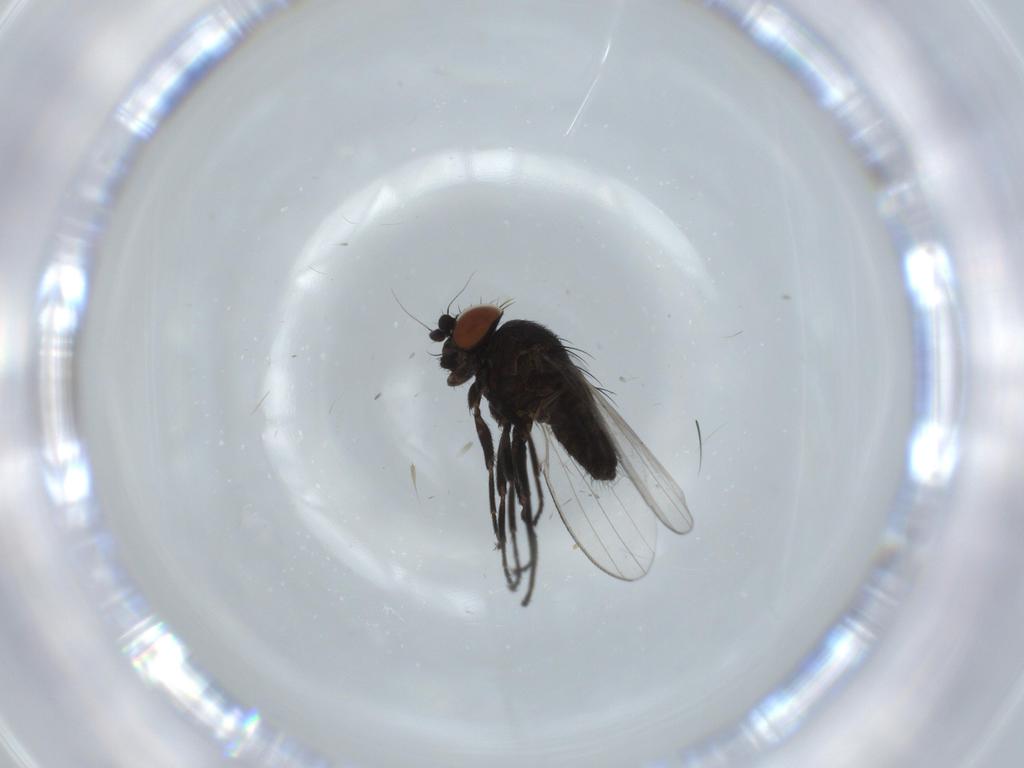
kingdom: Animalia
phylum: Arthropoda
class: Insecta
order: Diptera
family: Milichiidae
